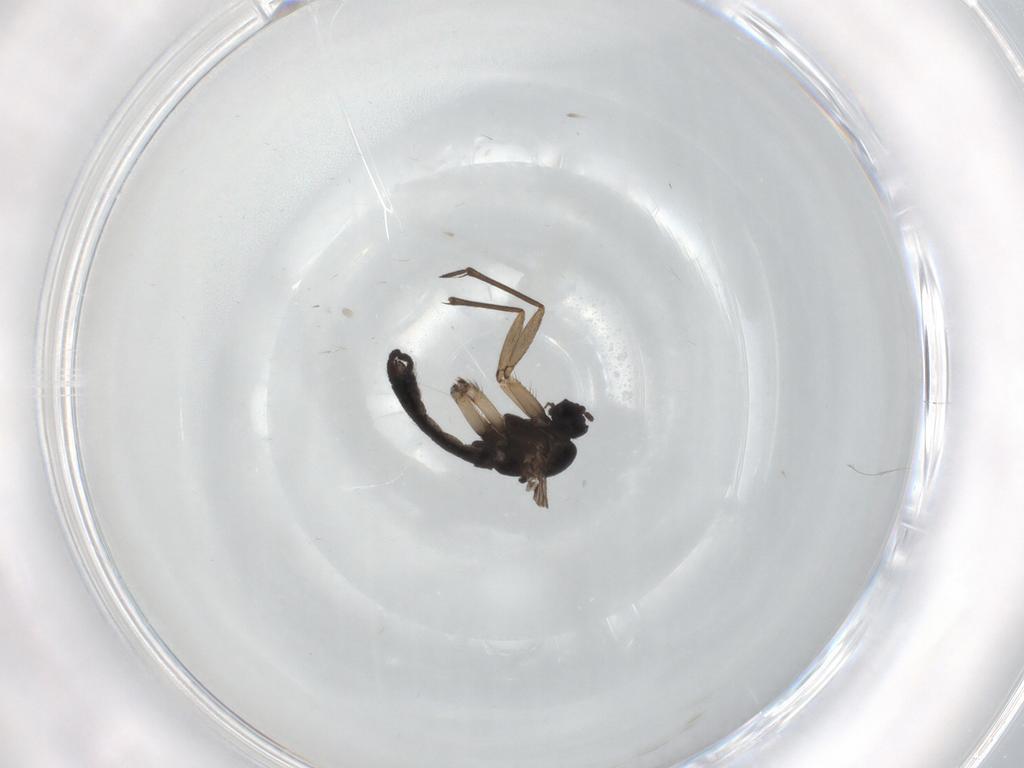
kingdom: Animalia
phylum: Arthropoda
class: Insecta
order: Diptera
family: Sciaridae
